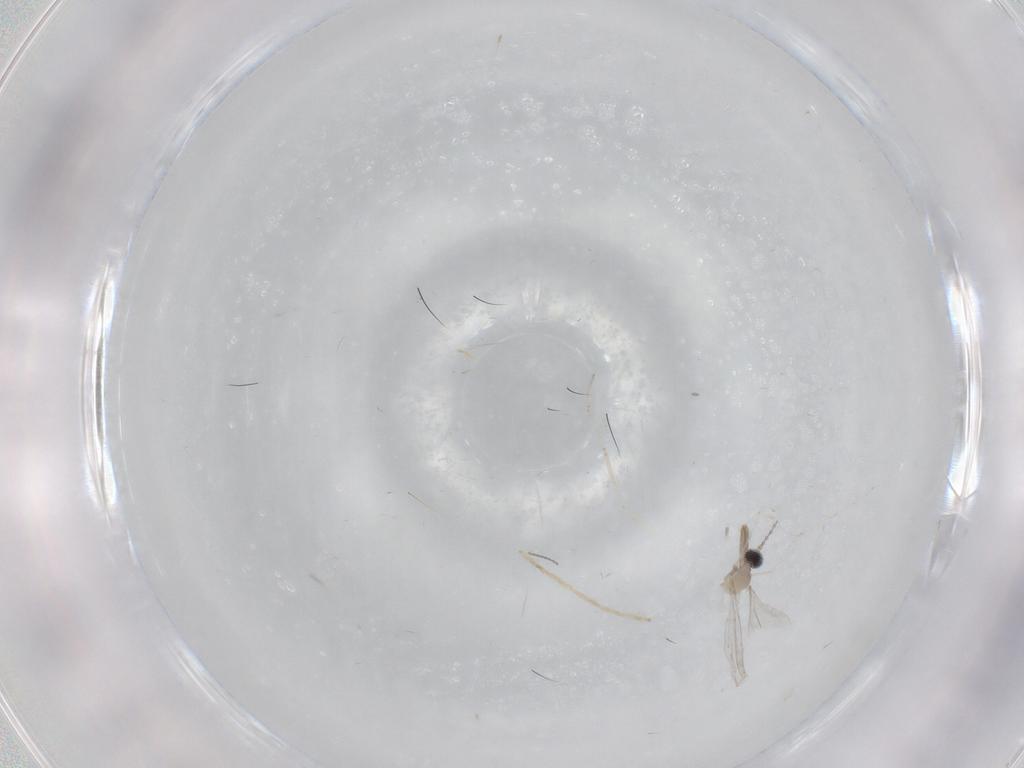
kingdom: Animalia
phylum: Arthropoda
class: Insecta
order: Diptera
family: Cecidomyiidae
